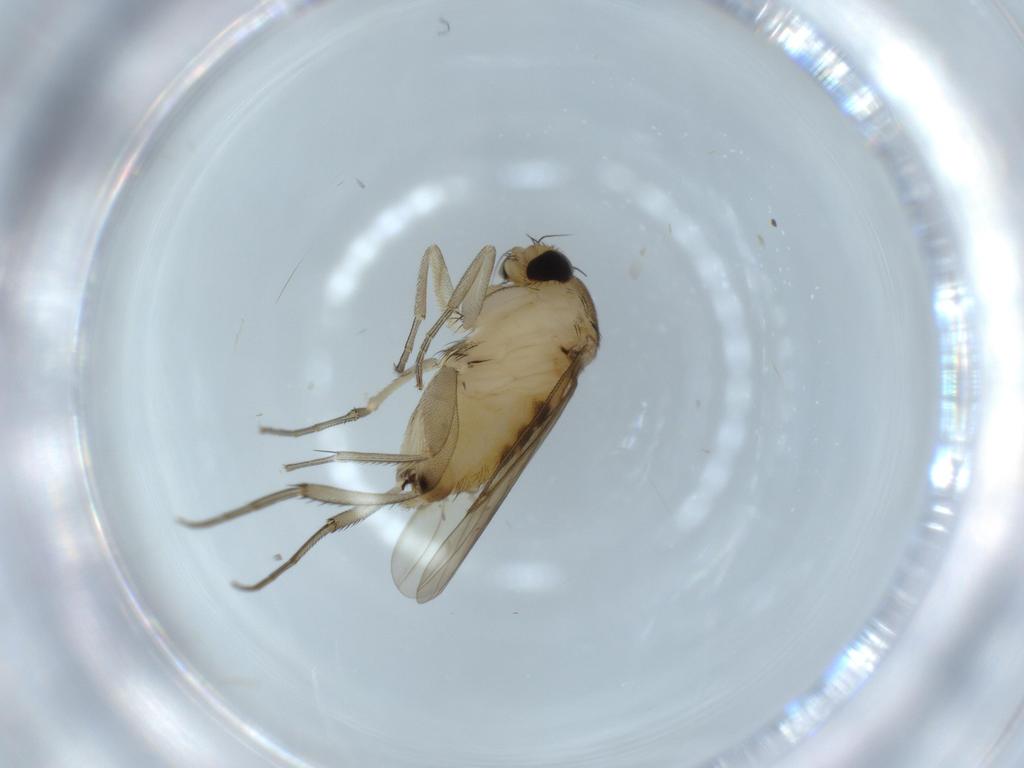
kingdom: Animalia
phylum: Arthropoda
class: Insecta
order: Diptera
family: Phoridae
